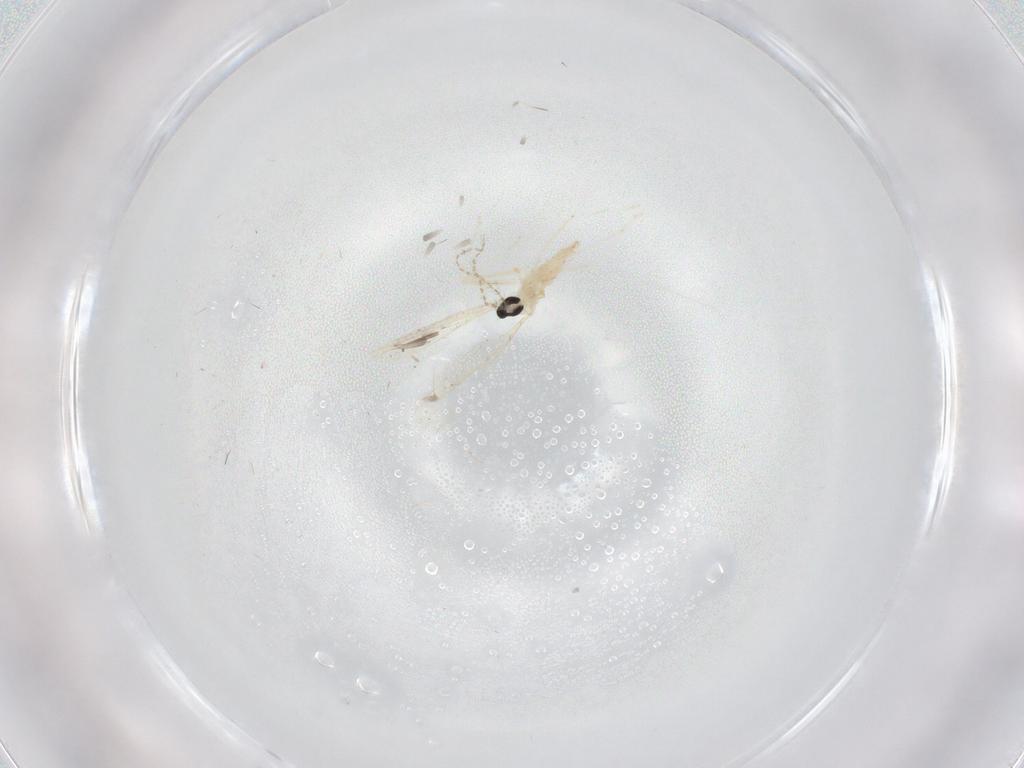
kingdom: Animalia
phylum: Arthropoda
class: Insecta
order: Diptera
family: Cecidomyiidae
